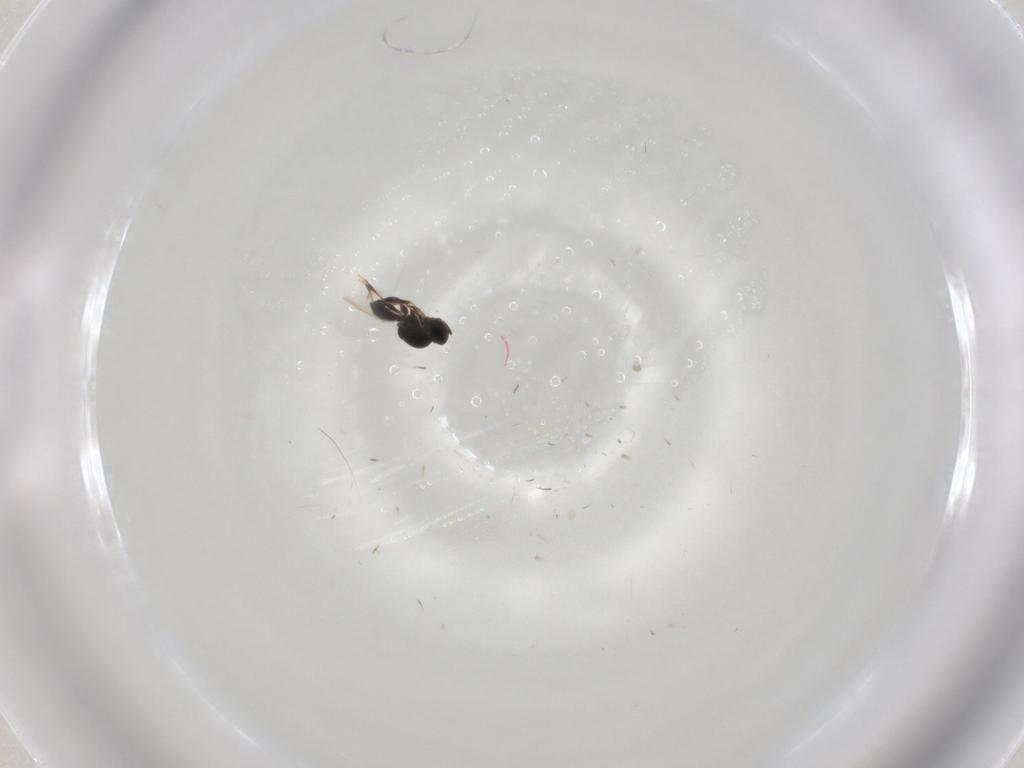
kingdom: Animalia
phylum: Arthropoda
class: Insecta
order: Hymenoptera
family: Platygastridae
